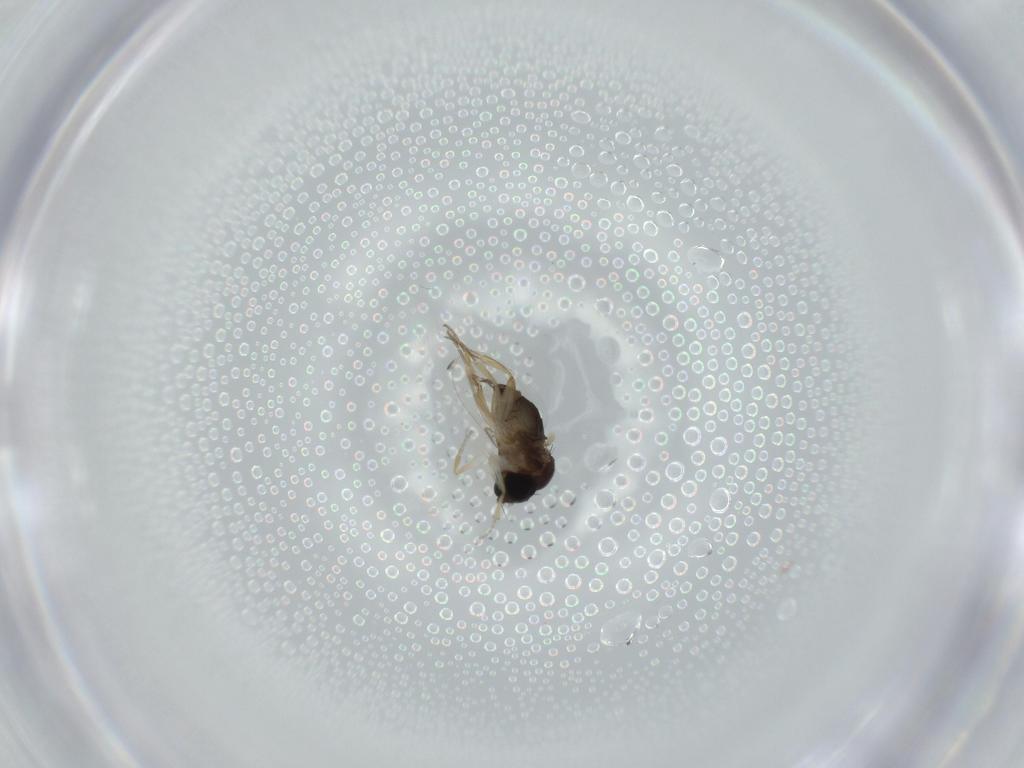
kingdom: Animalia
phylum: Arthropoda
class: Insecta
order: Diptera
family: Phoridae
